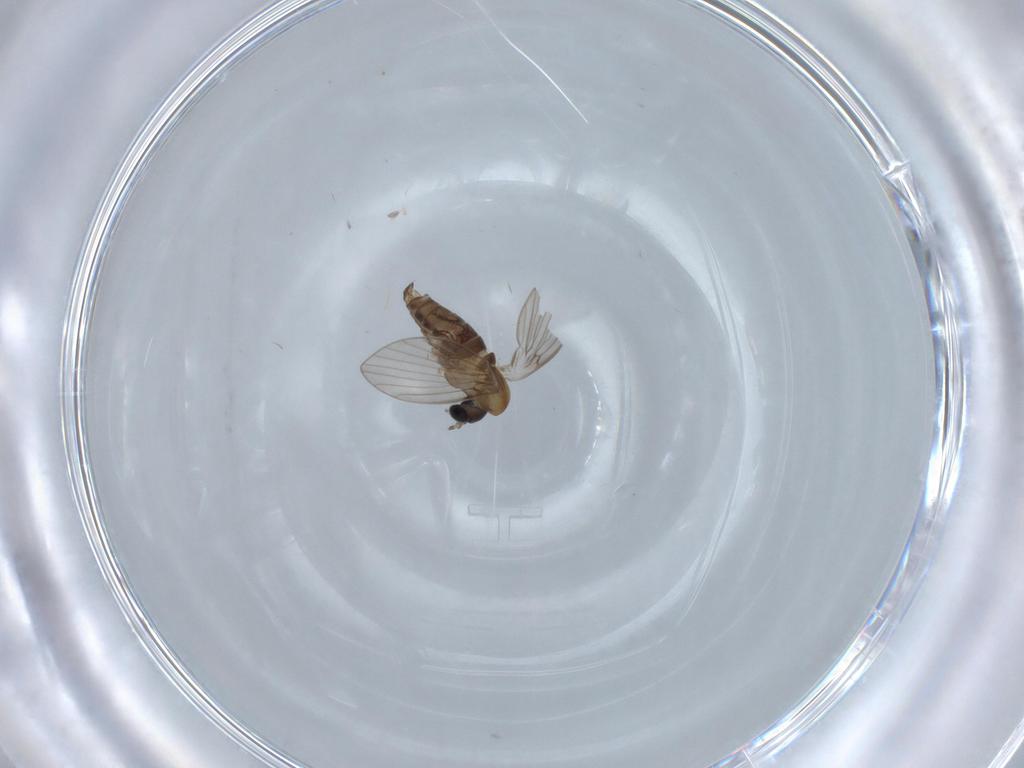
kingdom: Animalia
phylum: Arthropoda
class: Insecta
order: Diptera
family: Psychodidae
